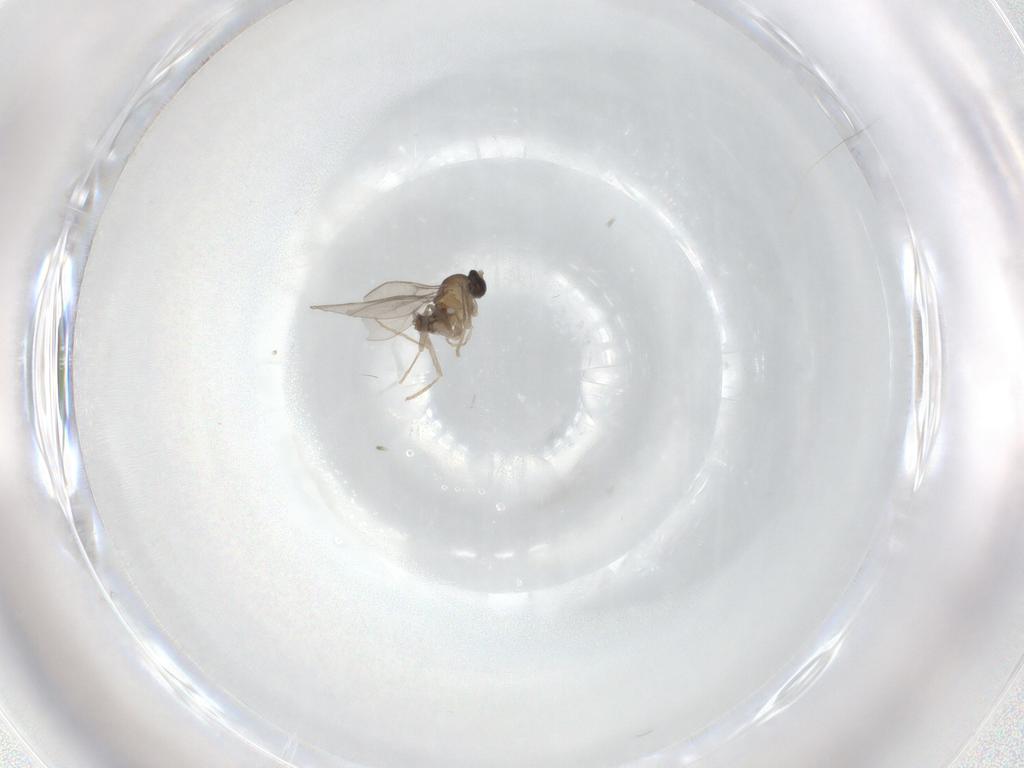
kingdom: Animalia
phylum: Arthropoda
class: Insecta
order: Diptera
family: Cecidomyiidae
